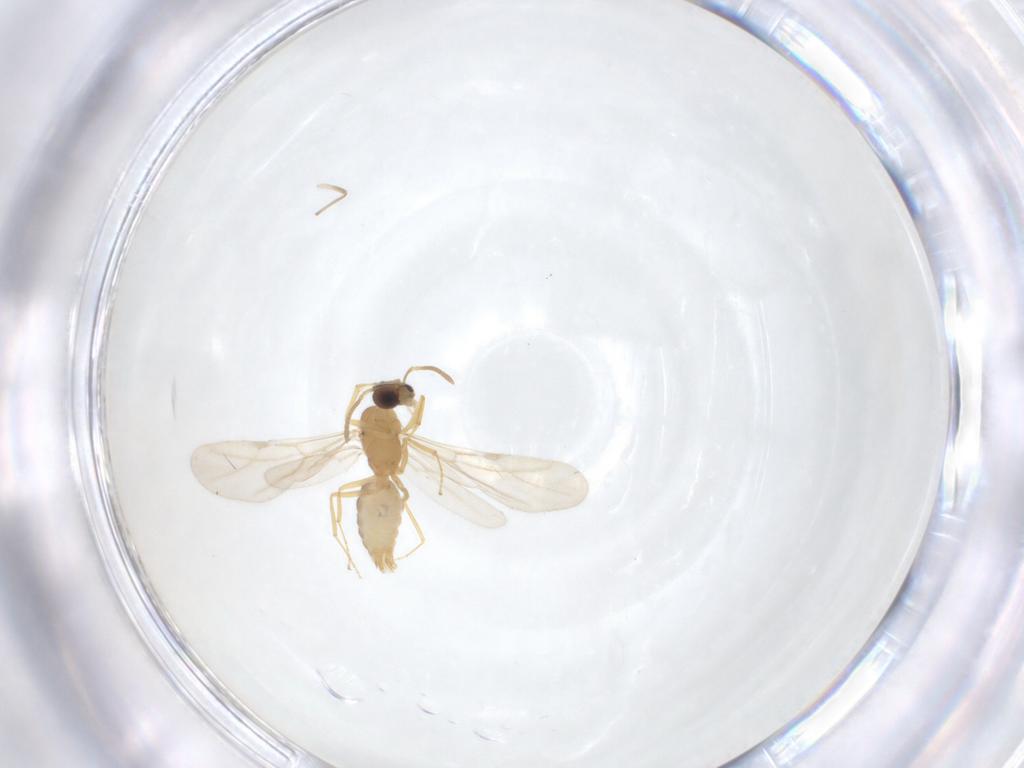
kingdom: Animalia
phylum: Arthropoda
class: Insecta
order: Hymenoptera
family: Formicidae
